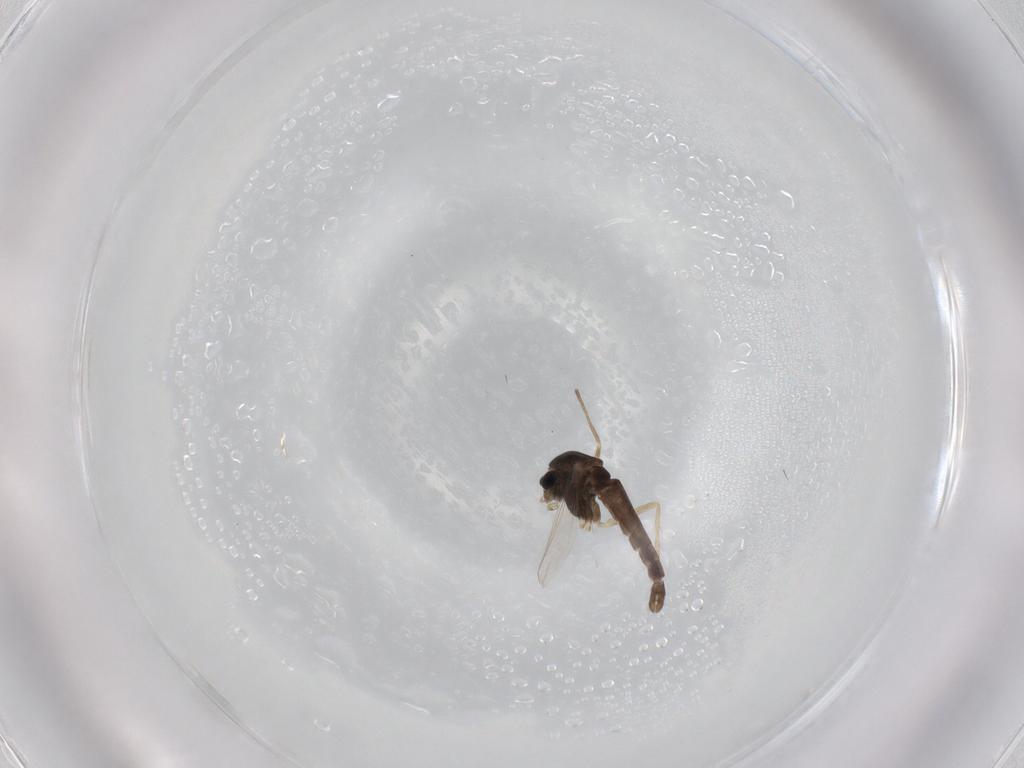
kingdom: Animalia
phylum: Arthropoda
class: Insecta
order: Diptera
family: Chironomidae
